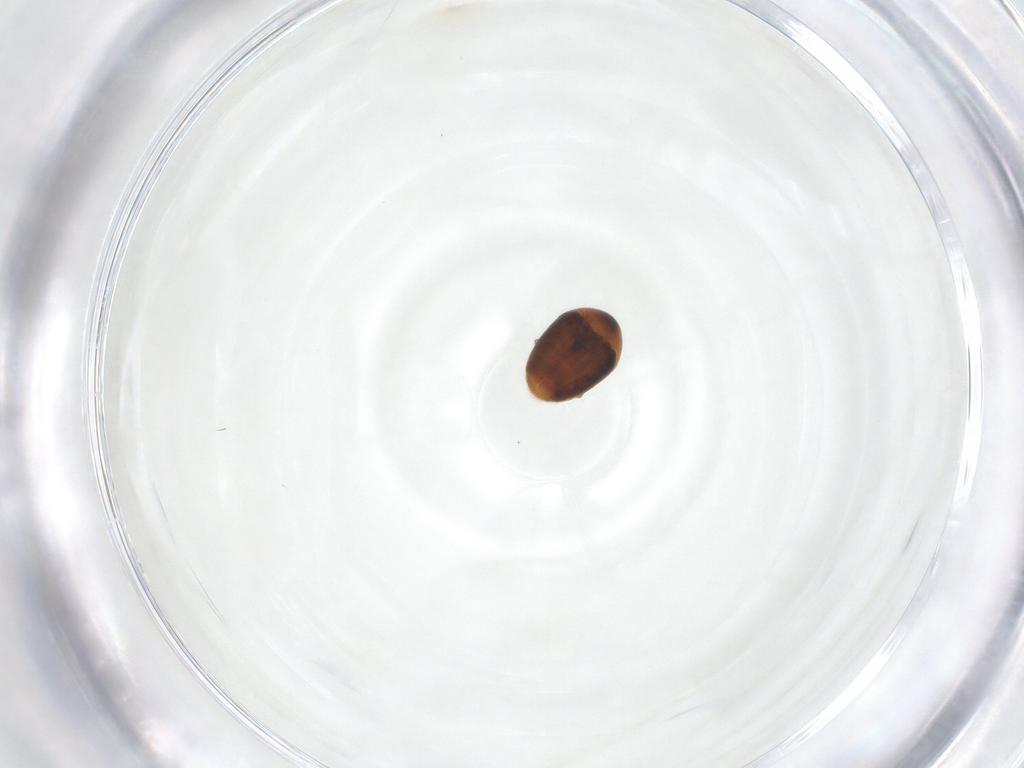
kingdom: Animalia
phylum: Arthropoda
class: Insecta
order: Coleoptera
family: Corylophidae
